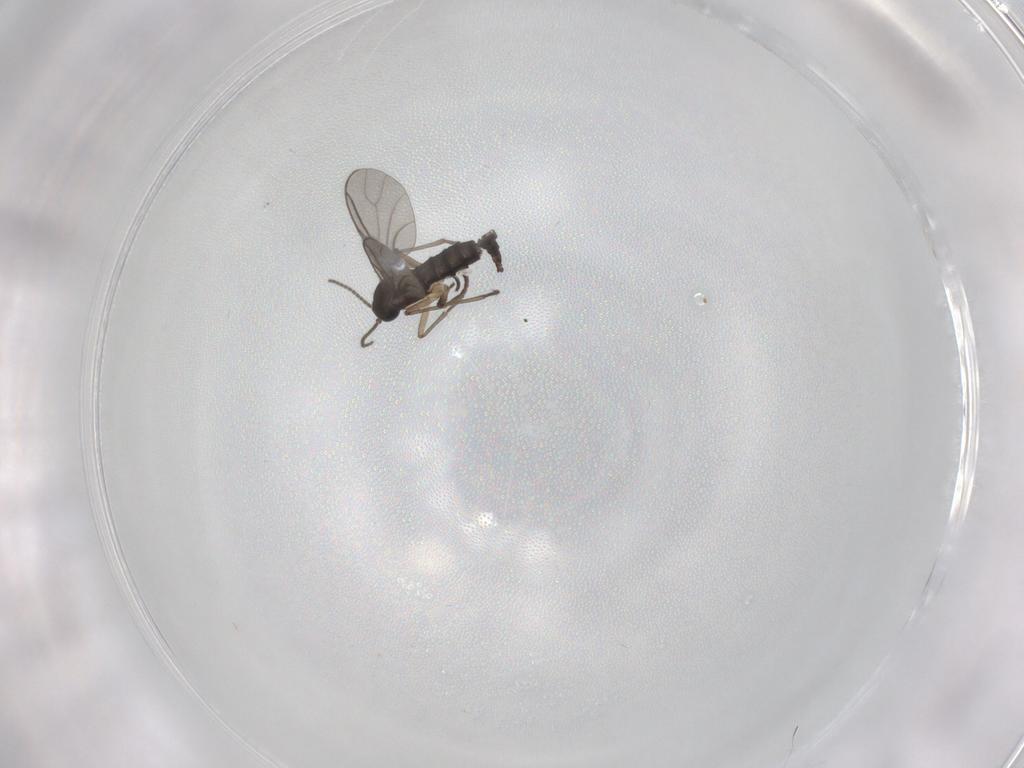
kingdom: Animalia
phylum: Arthropoda
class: Insecta
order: Diptera
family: Sciaridae
